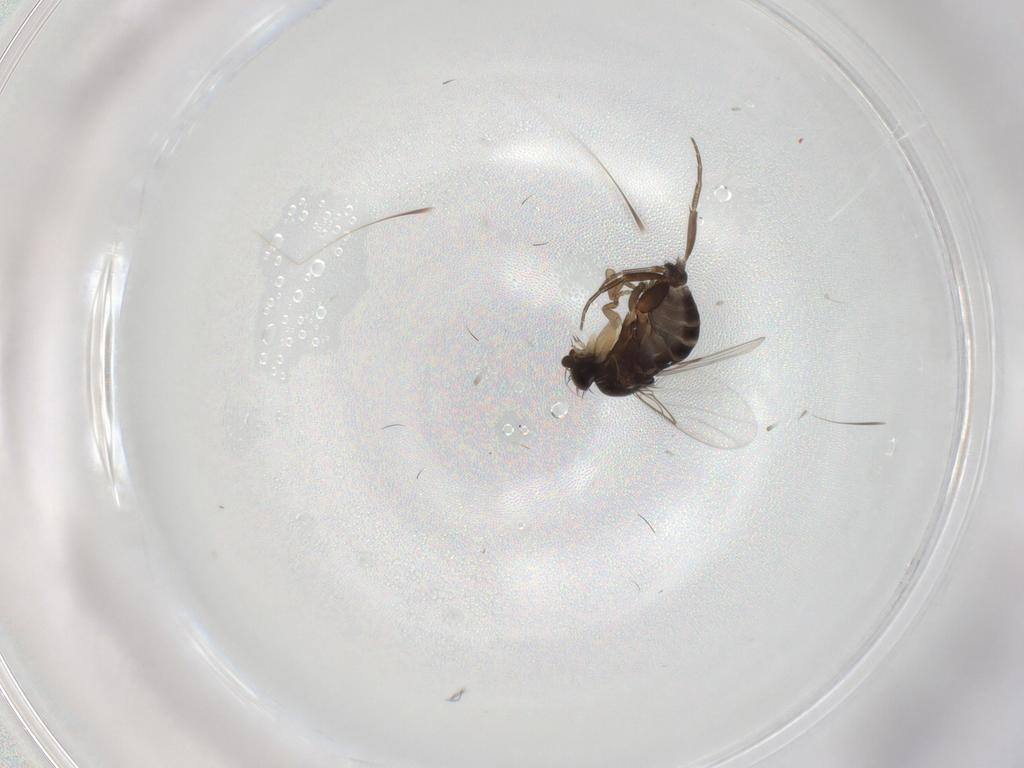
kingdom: Animalia
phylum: Arthropoda
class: Insecta
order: Diptera
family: Phoridae
